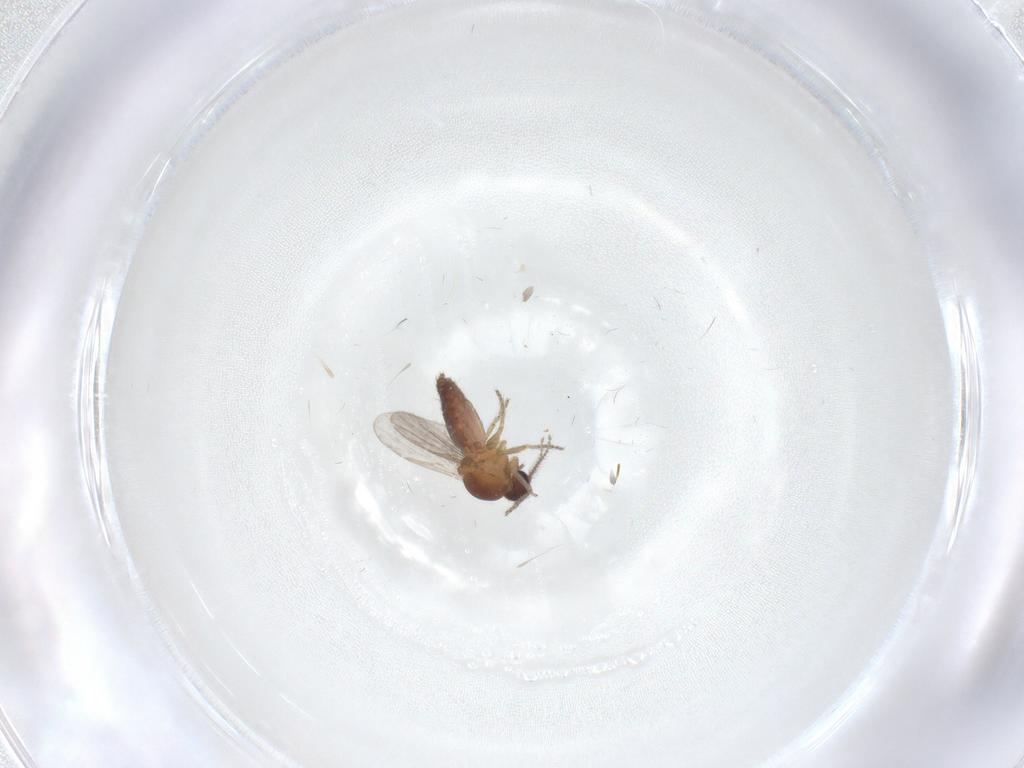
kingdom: Animalia
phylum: Arthropoda
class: Insecta
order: Diptera
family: Ceratopogonidae
